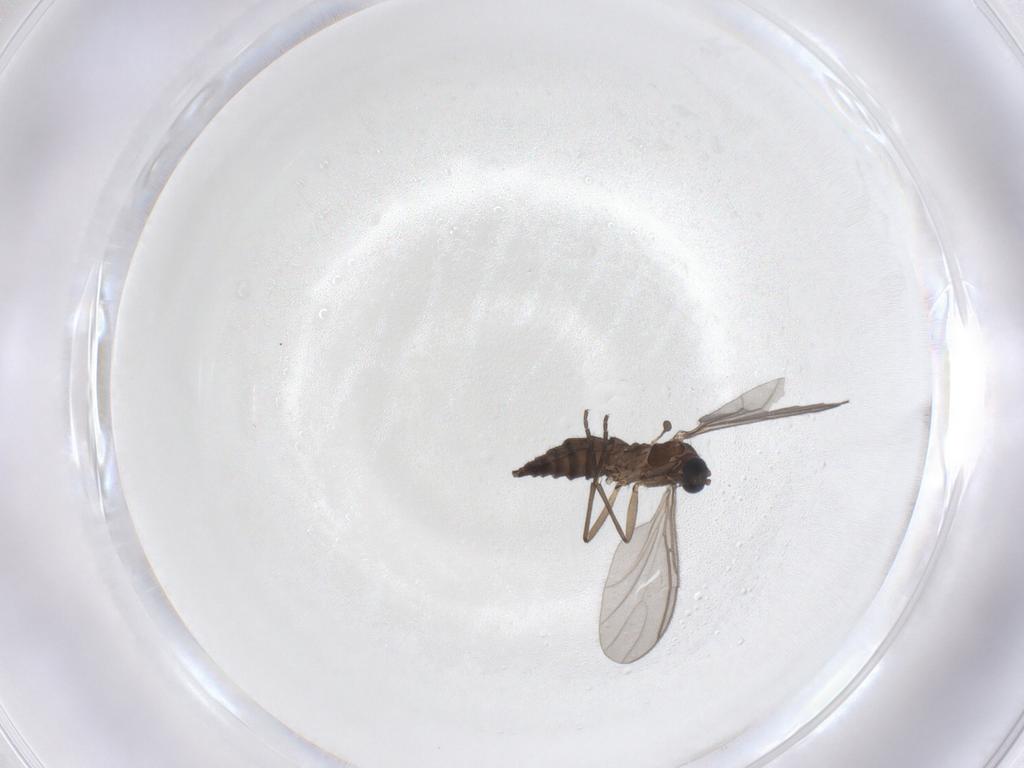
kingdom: Animalia
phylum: Arthropoda
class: Insecta
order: Diptera
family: Sciaridae
